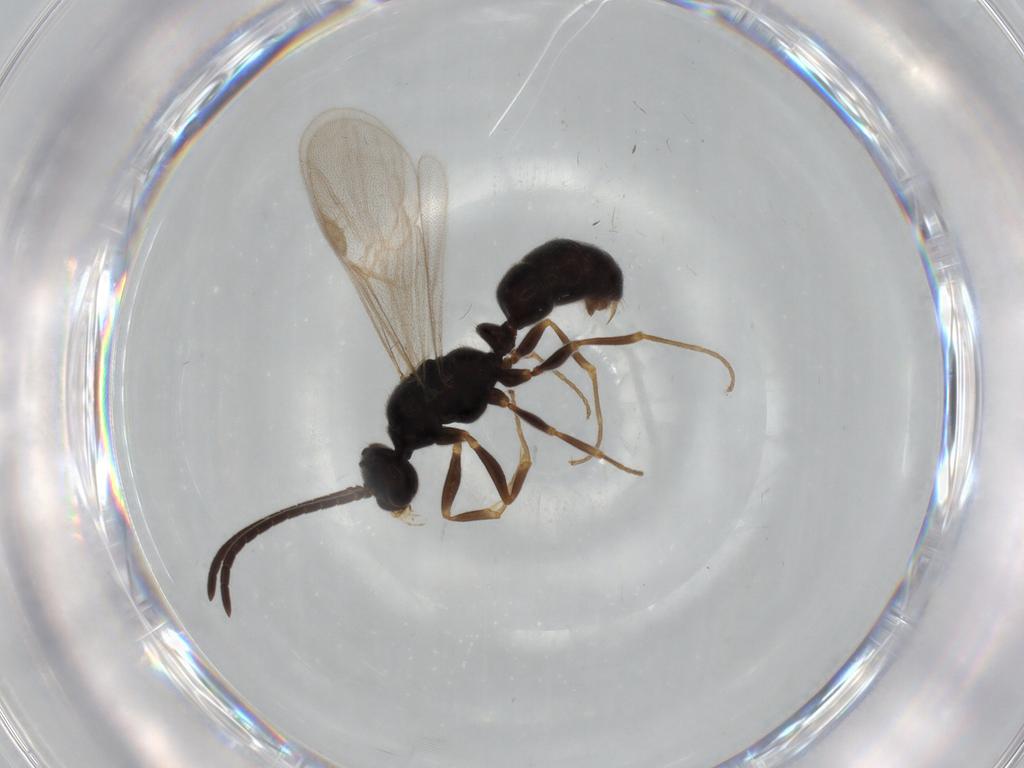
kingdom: Animalia
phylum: Arthropoda
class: Insecta
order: Hymenoptera
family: Formicidae
